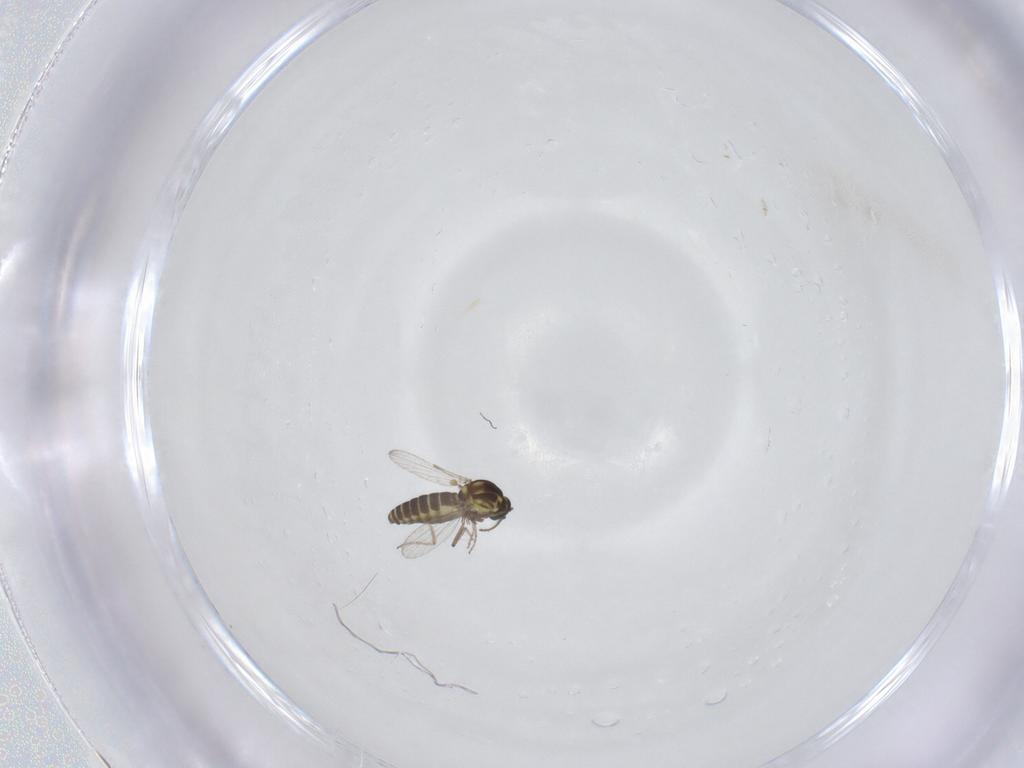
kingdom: Animalia
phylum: Arthropoda
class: Insecta
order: Diptera
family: Ceratopogonidae
